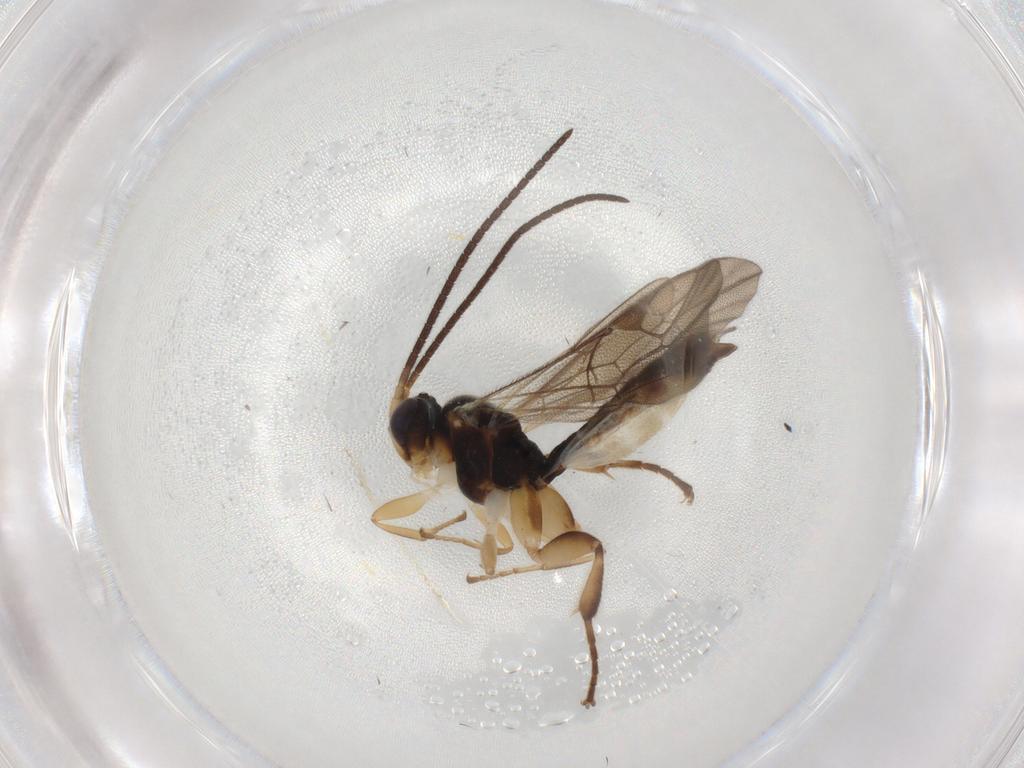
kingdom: Animalia
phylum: Arthropoda
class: Insecta
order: Hymenoptera
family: Ichneumonidae
